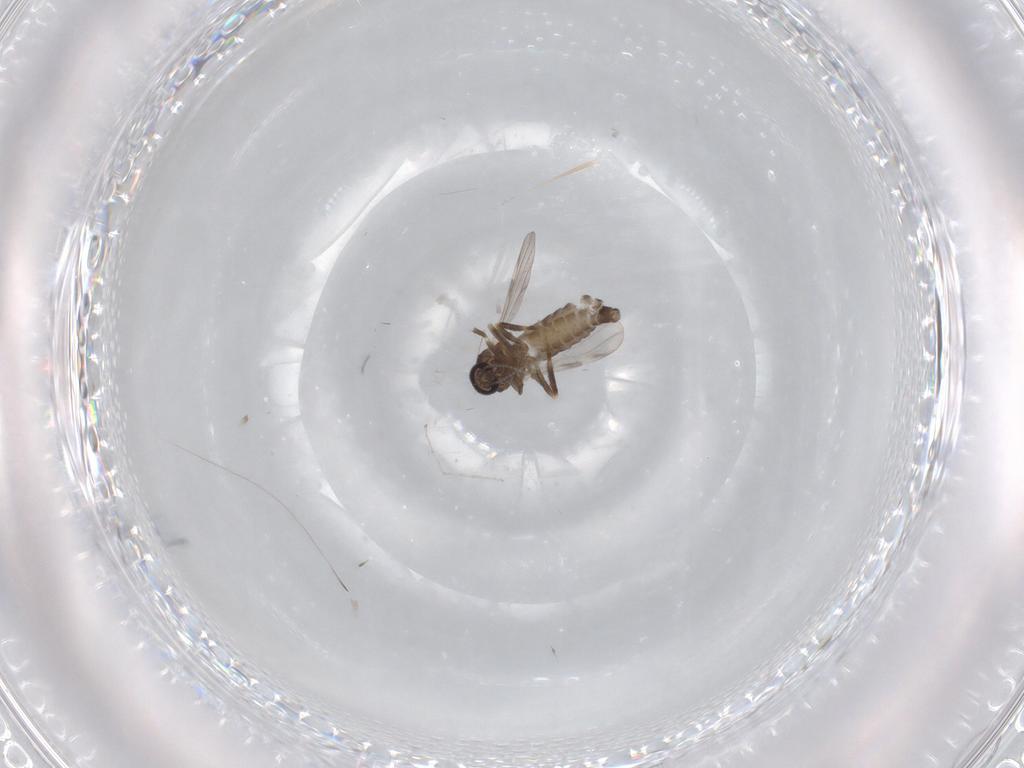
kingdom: Animalia
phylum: Arthropoda
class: Insecta
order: Diptera
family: Ceratopogonidae
